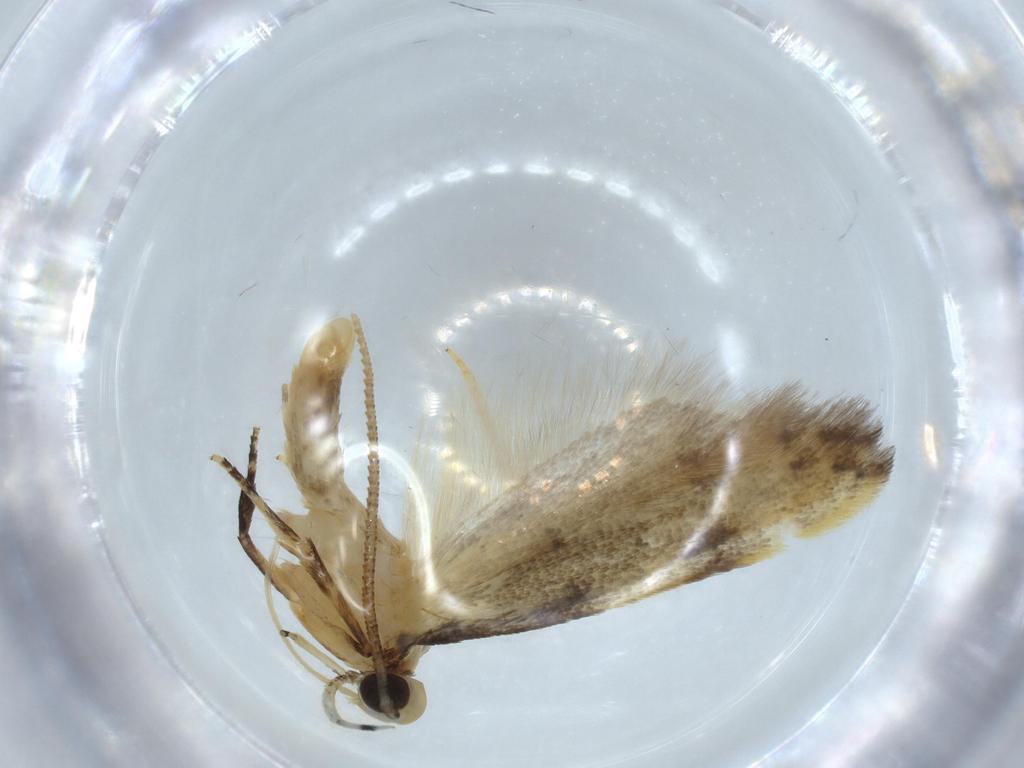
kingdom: Animalia
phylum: Arthropoda
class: Insecta
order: Lepidoptera
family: Autostichidae
